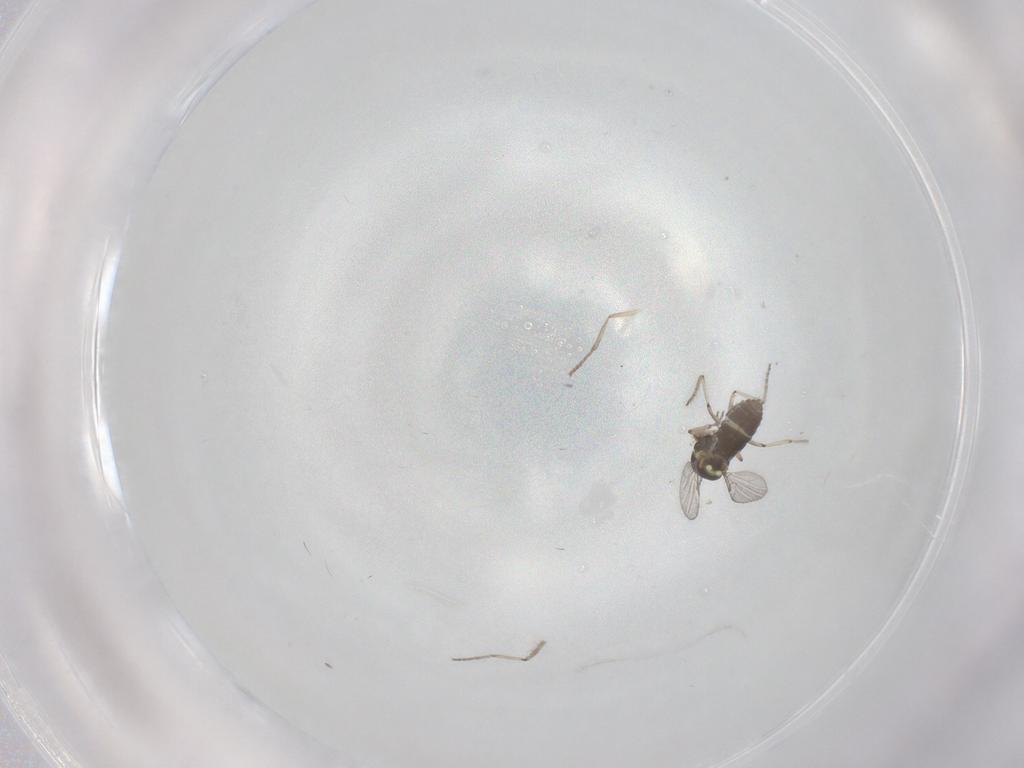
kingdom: Animalia
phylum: Arthropoda
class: Insecta
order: Diptera
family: Ceratopogonidae
